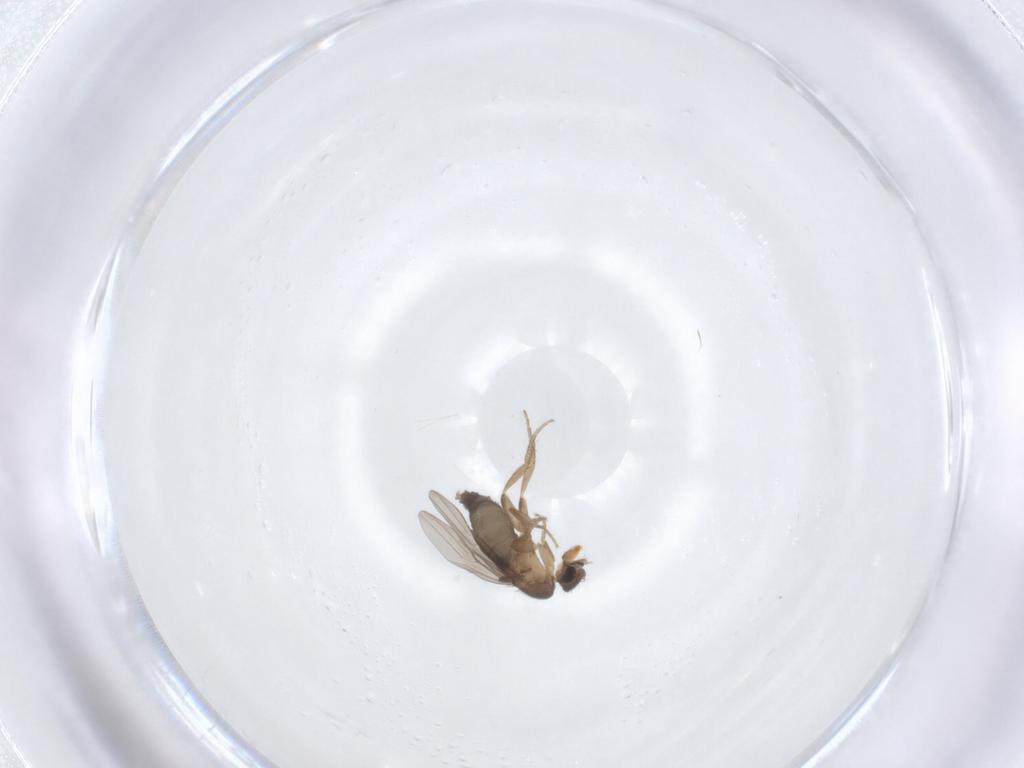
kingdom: Animalia
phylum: Arthropoda
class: Insecta
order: Diptera
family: Phoridae
